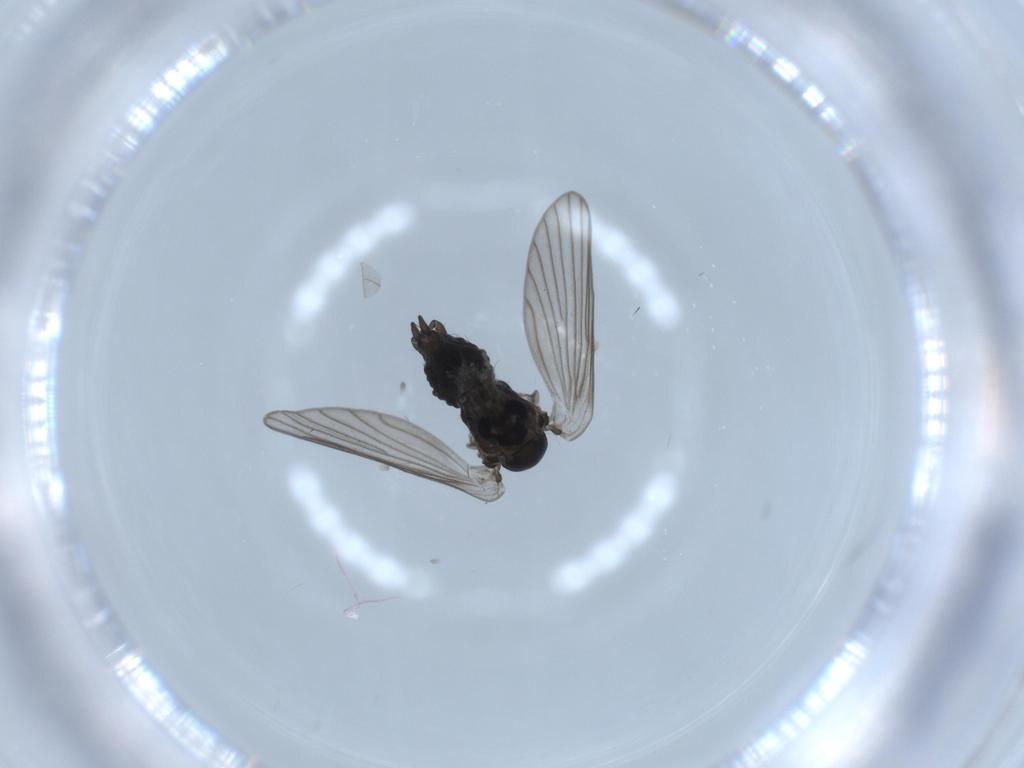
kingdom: Animalia
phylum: Arthropoda
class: Insecta
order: Diptera
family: Psychodidae
